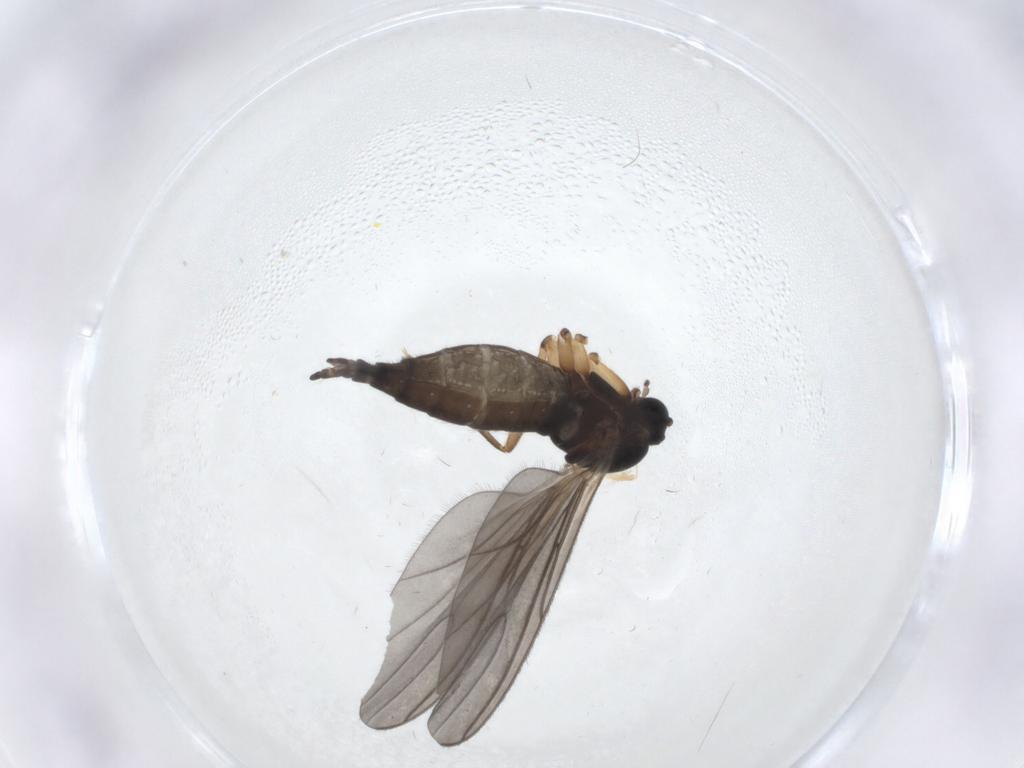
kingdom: Animalia
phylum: Arthropoda
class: Insecta
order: Diptera
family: Sciaridae
